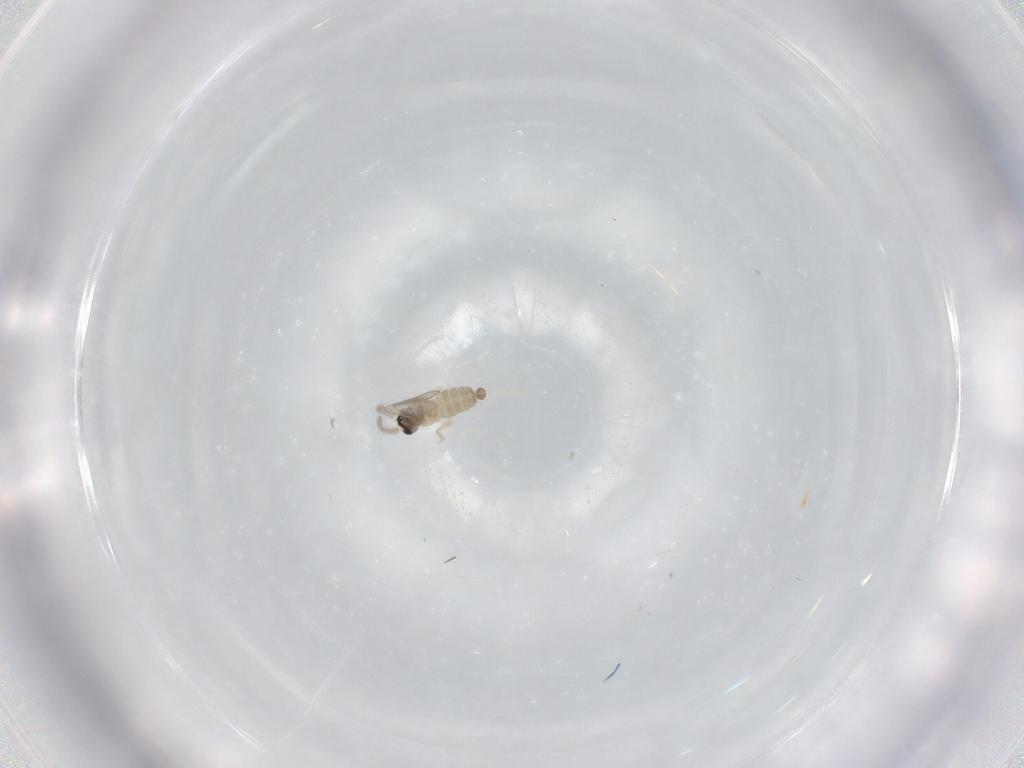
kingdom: Animalia
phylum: Arthropoda
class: Insecta
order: Diptera
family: Cecidomyiidae
